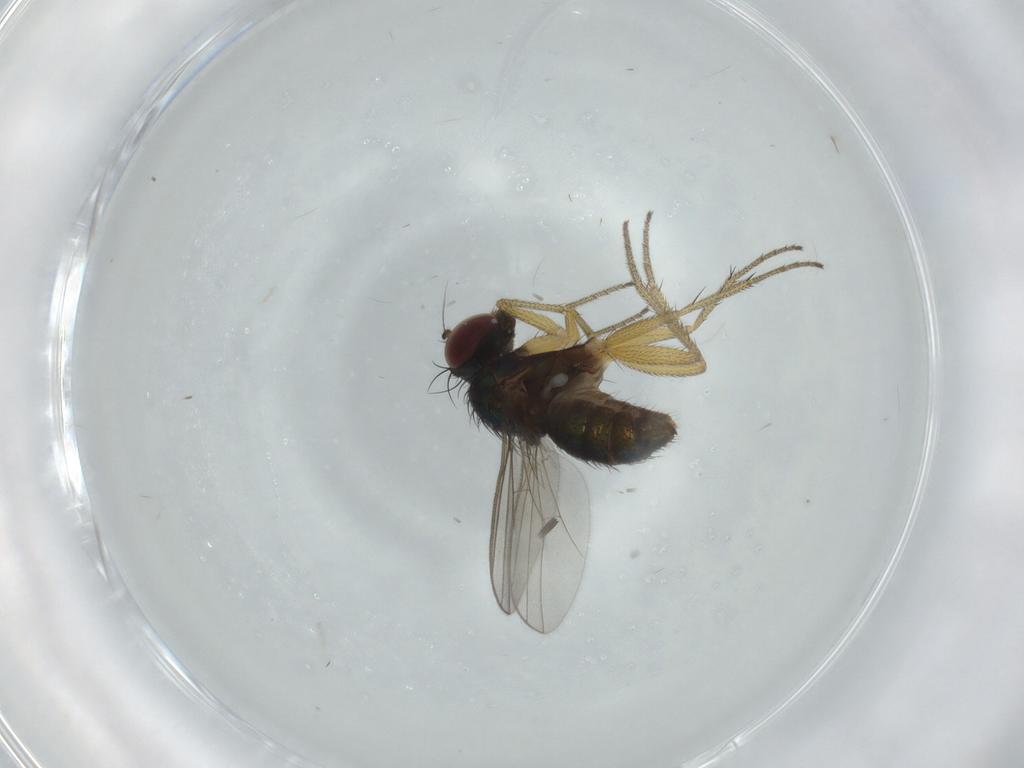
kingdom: Animalia
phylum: Arthropoda
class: Insecta
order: Diptera
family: Dolichopodidae
